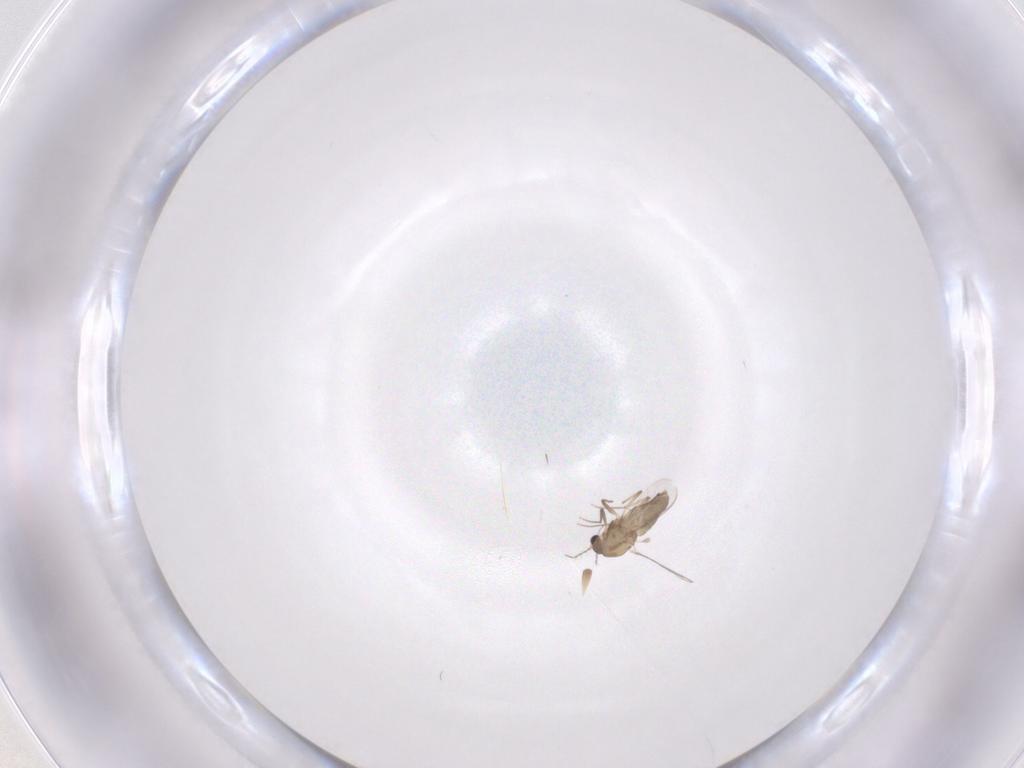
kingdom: Animalia
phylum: Arthropoda
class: Insecta
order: Diptera
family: Chironomidae
